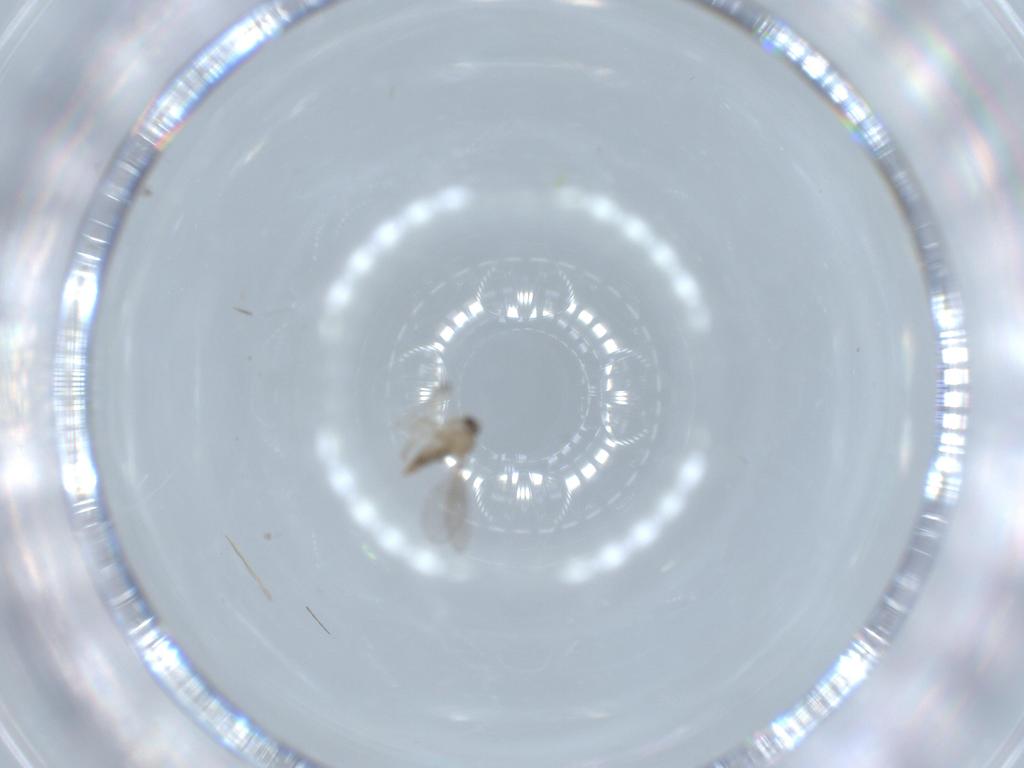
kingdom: Animalia
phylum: Arthropoda
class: Insecta
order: Diptera
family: Cecidomyiidae
